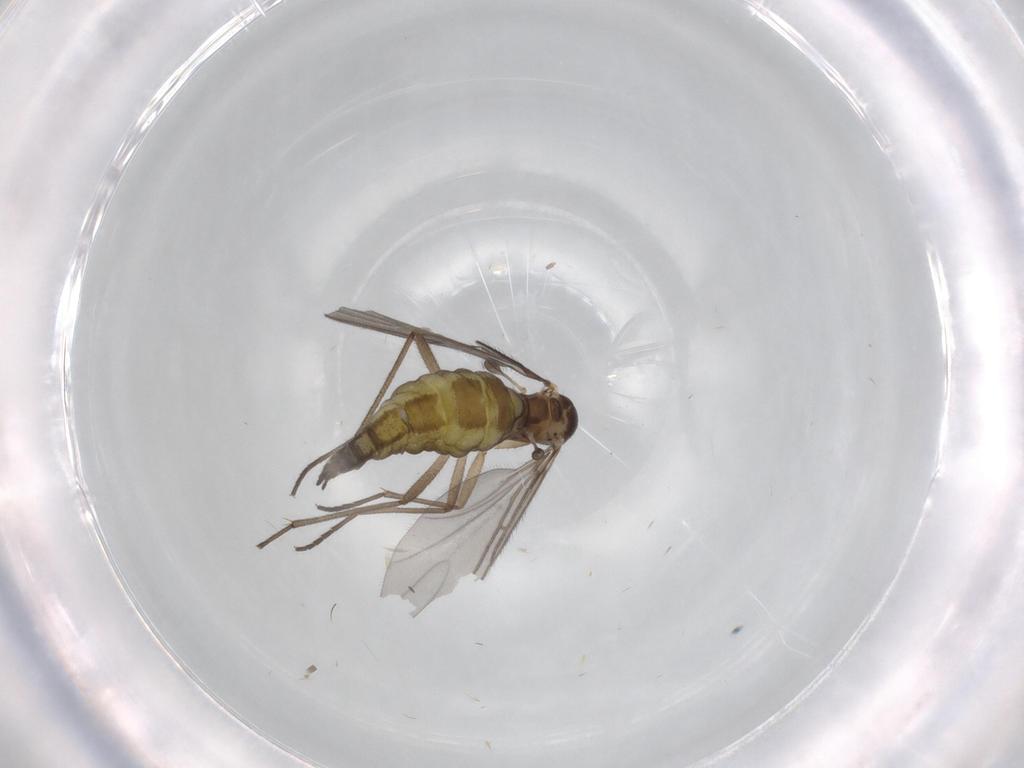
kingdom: Animalia
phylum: Arthropoda
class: Insecta
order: Diptera
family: Sciaridae
